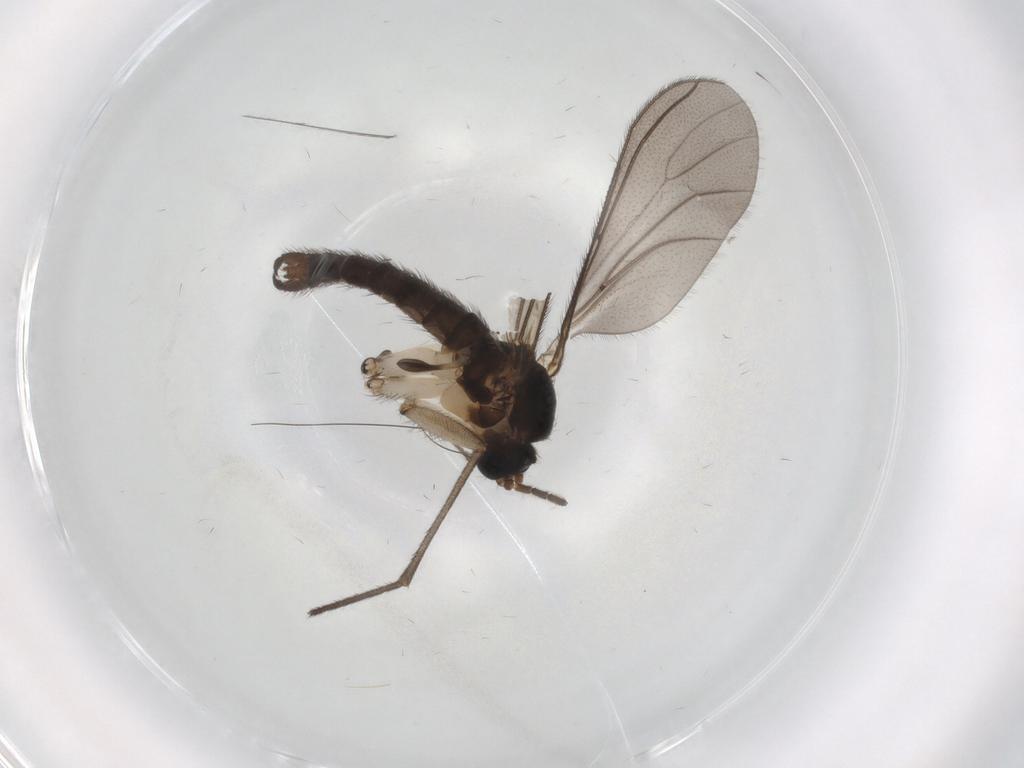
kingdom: Animalia
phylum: Arthropoda
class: Insecta
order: Diptera
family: Sciaridae
